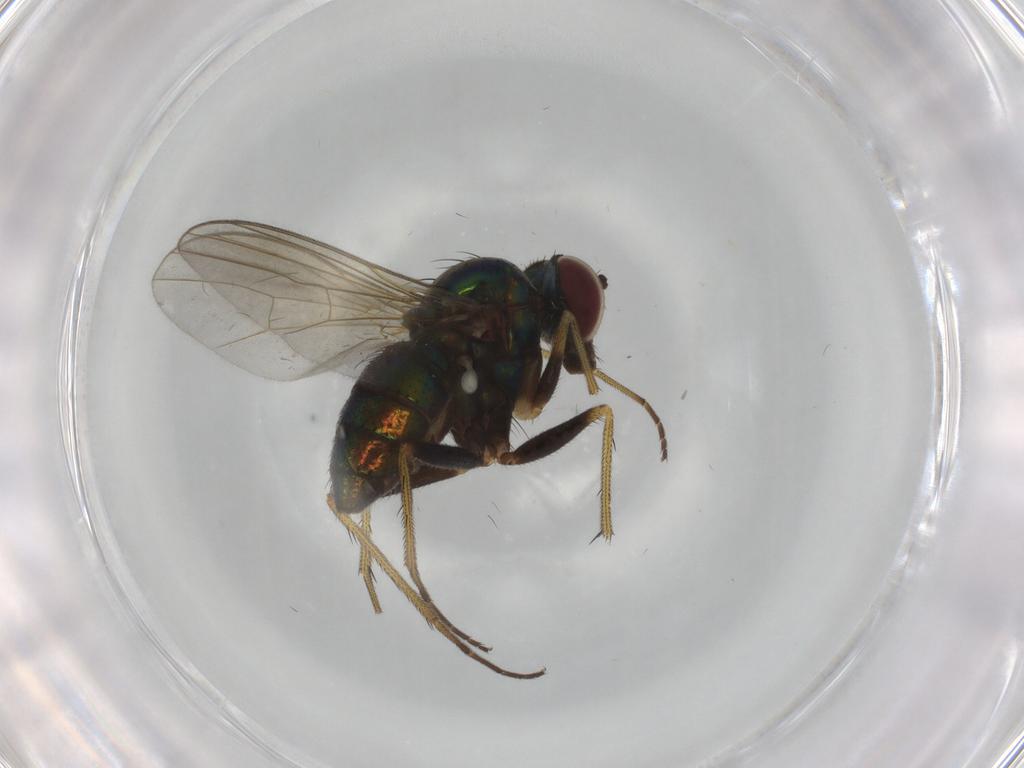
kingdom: Animalia
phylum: Arthropoda
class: Insecta
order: Diptera
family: Dolichopodidae
